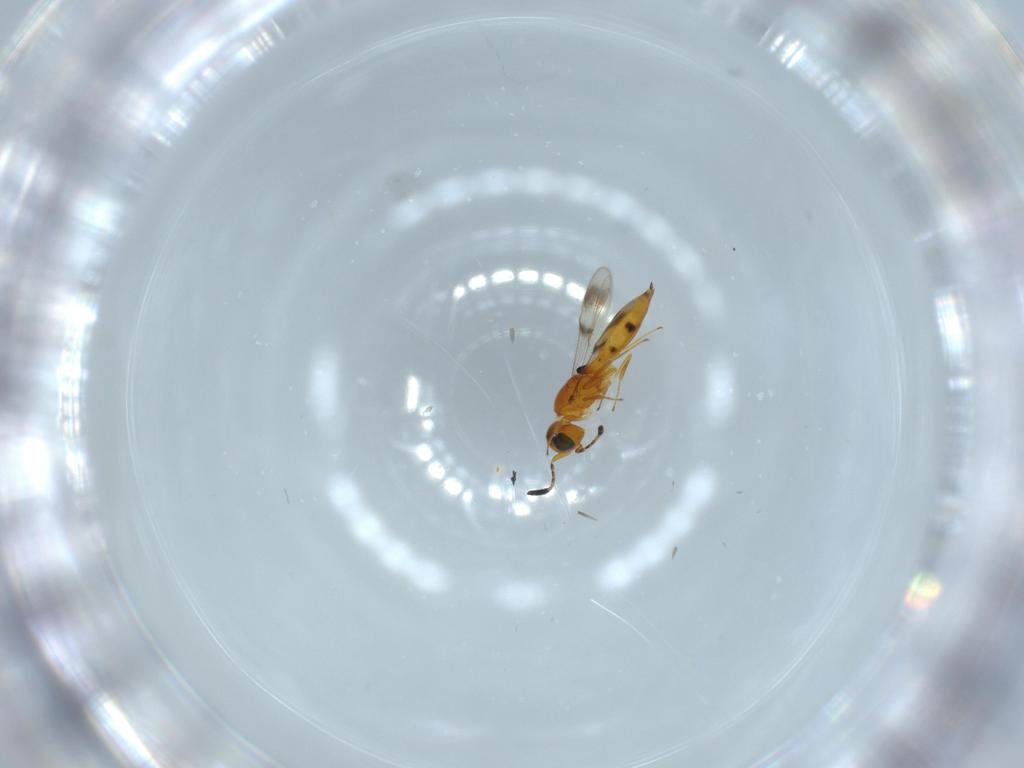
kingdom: Animalia
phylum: Arthropoda
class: Insecta
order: Hymenoptera
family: Scelionidae
